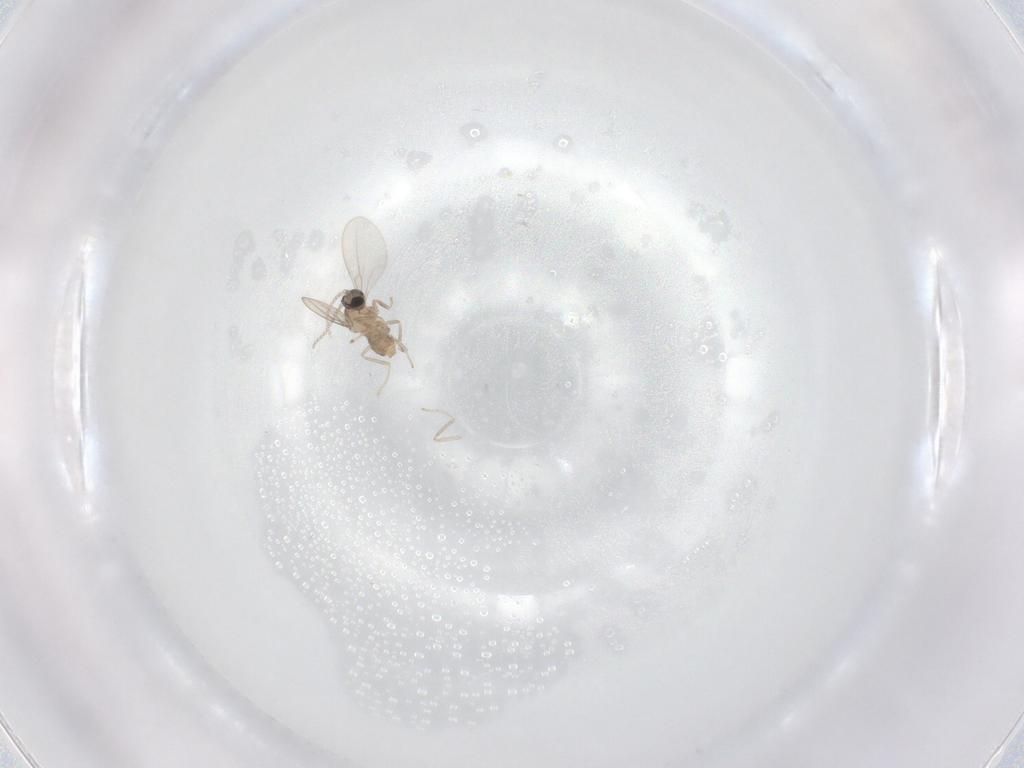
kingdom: Animalia
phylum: Arthropoda
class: Insecta
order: Diptera
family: Cecidomyiidae
